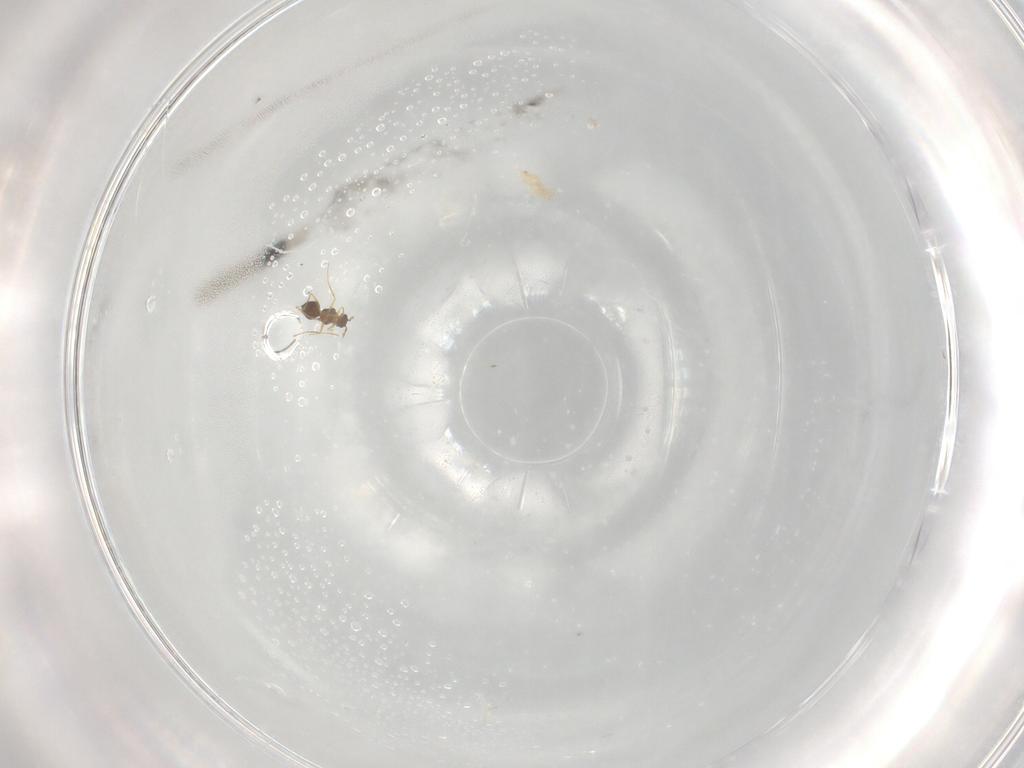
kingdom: Animalia
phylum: Arthropoda
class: Insecta
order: Hymenoptera
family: Mymaridae
